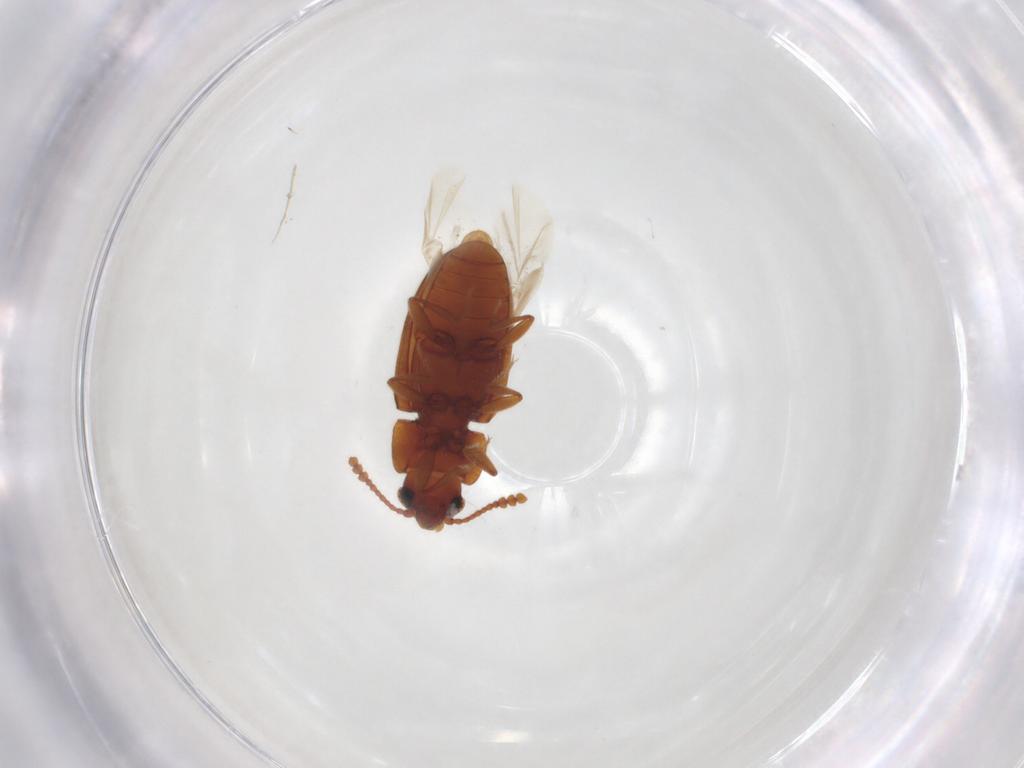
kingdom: Animalia
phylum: Arthropoda
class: Insecta
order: Coleoptera
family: Erotylidae
